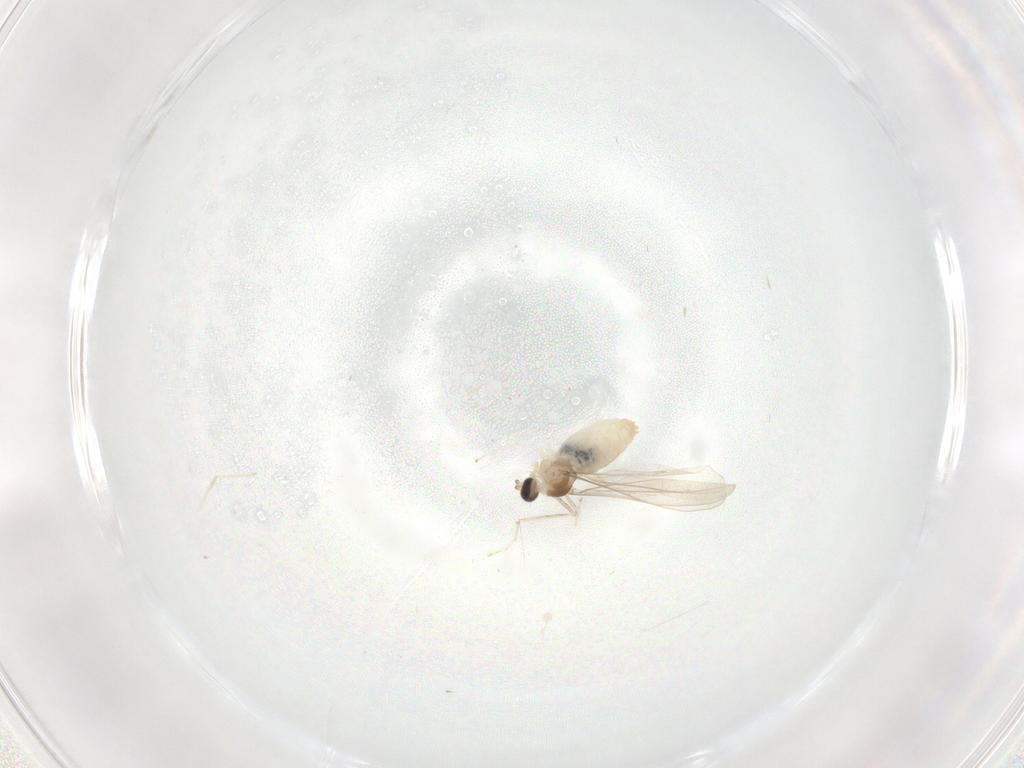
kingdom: Animalia
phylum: Arthropoda
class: Insecta
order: Diptera
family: Cecidomyiidae
